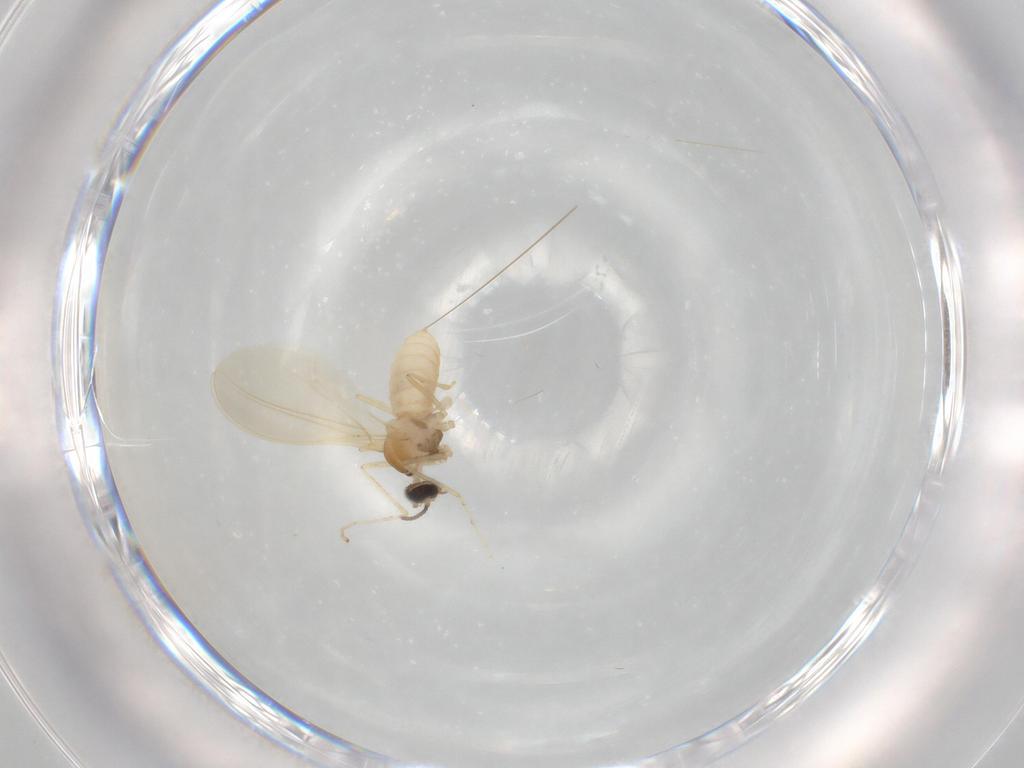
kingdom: Animalia
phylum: Arthropoda
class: Insecta
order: Diptera
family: Cecidomyiidae
